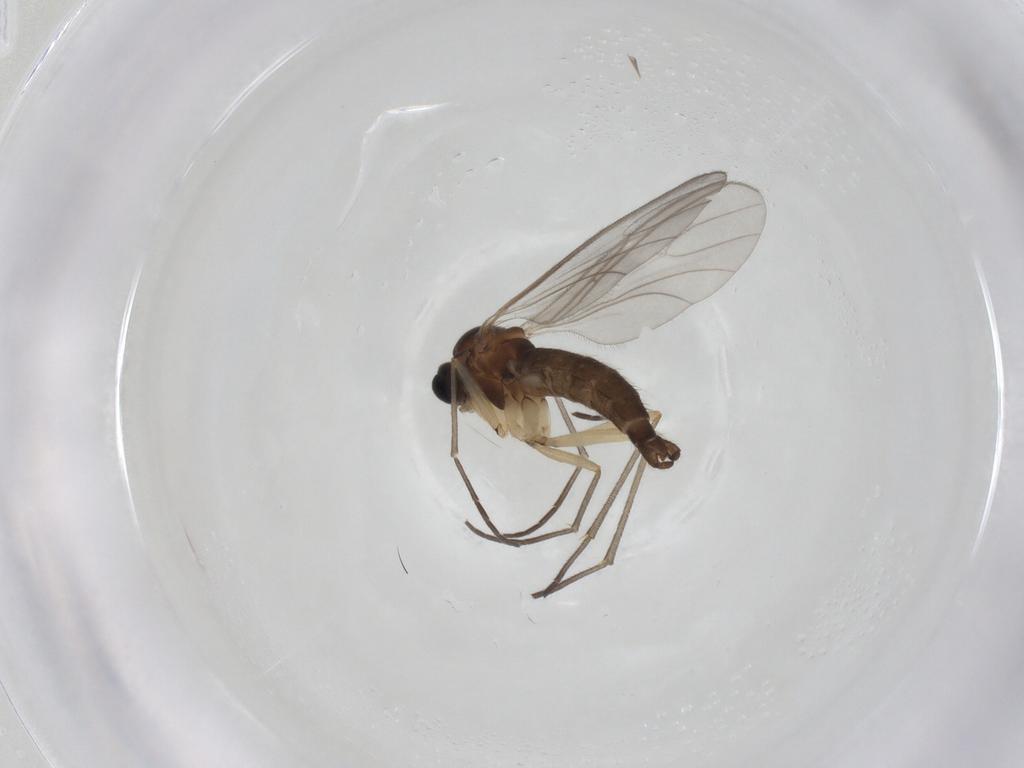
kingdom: Animalia
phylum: Arthropoda
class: Insecta
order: Diptera
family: Sciaridae
